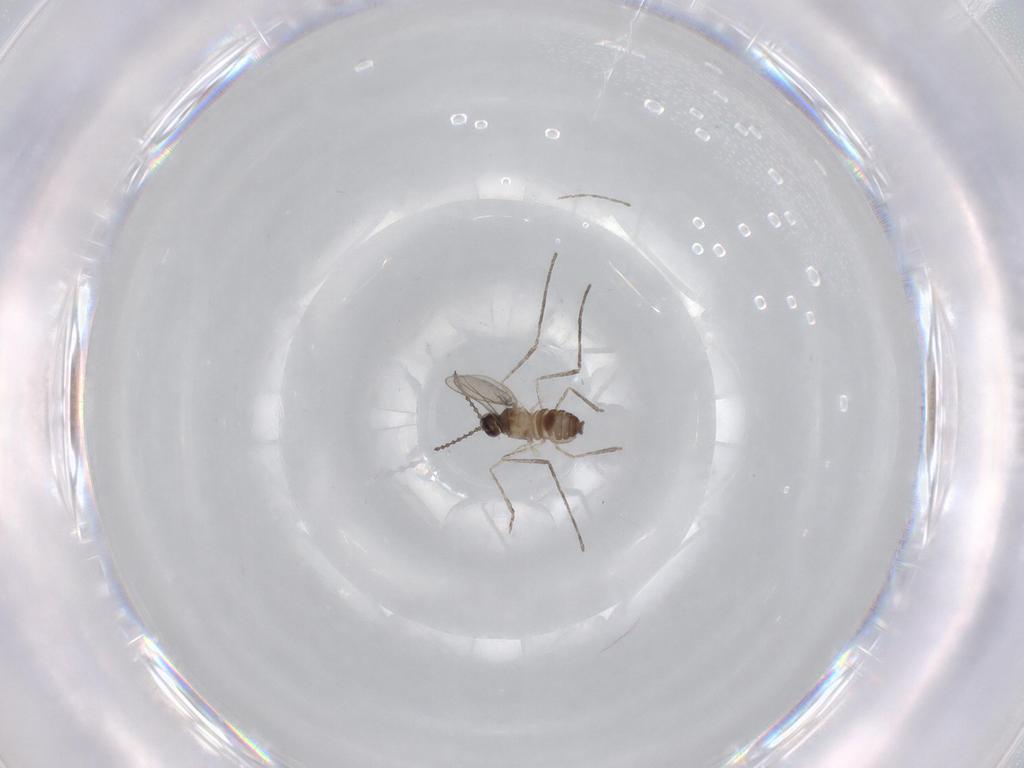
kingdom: Animalia
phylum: Arthropoda
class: Insecta
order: Diptera
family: Cecidomyiidae
